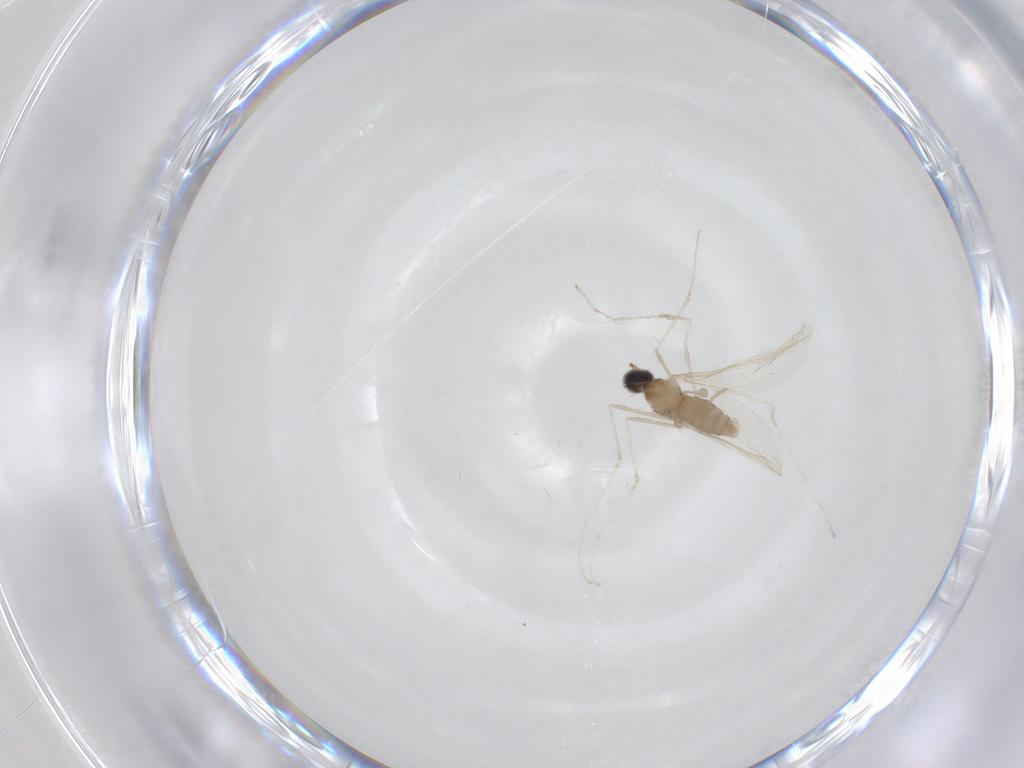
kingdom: Animalia
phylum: Arthropoda
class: Insecta
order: Diptera
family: Cecidomyiidae
